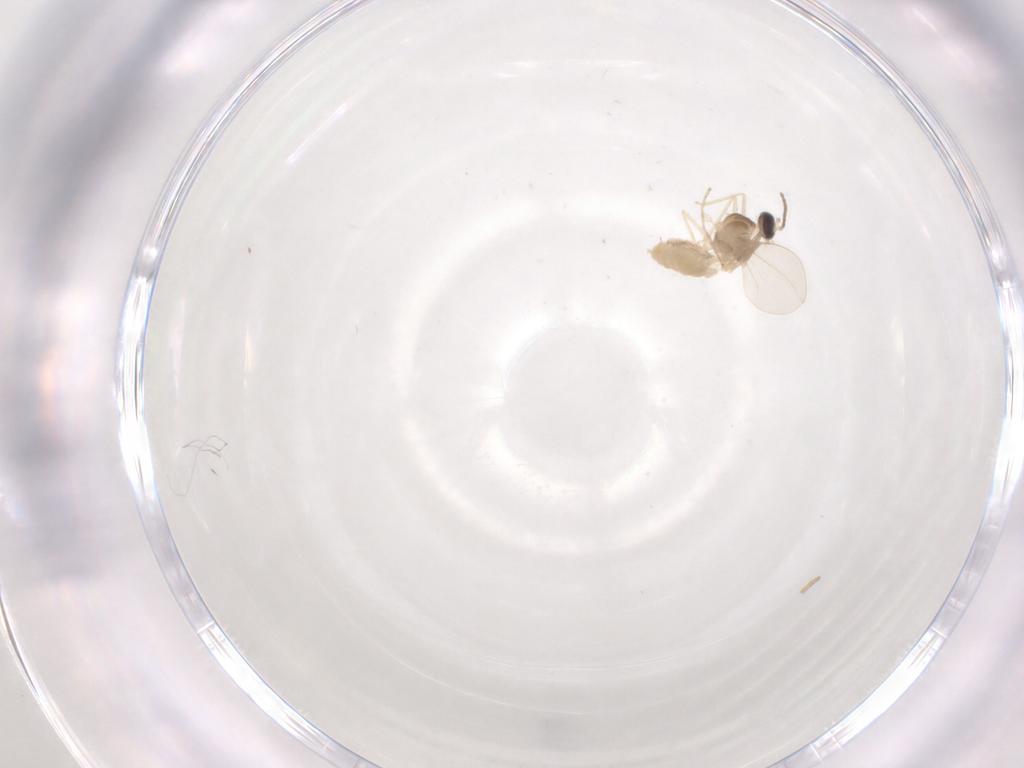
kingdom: Animalia
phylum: Arthropoda
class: Insecta
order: Diptera
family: Cecidomyiidae
